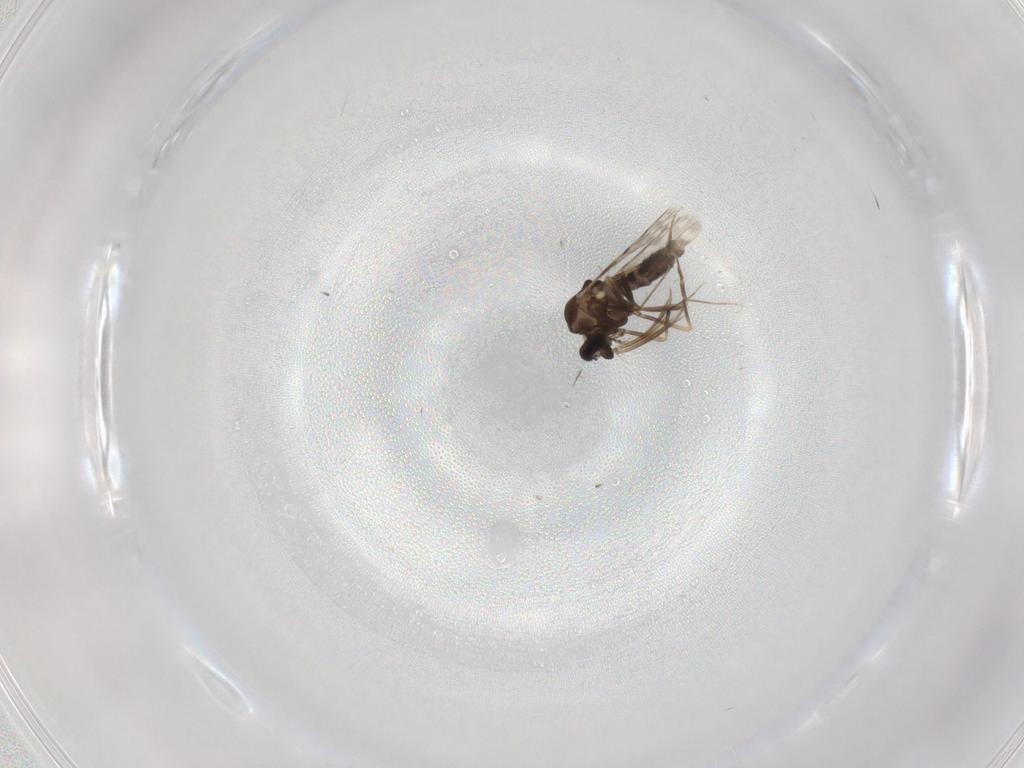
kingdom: Animalia
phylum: Arthropoda
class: Insecta
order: Diptera
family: Ceratopogonidae
